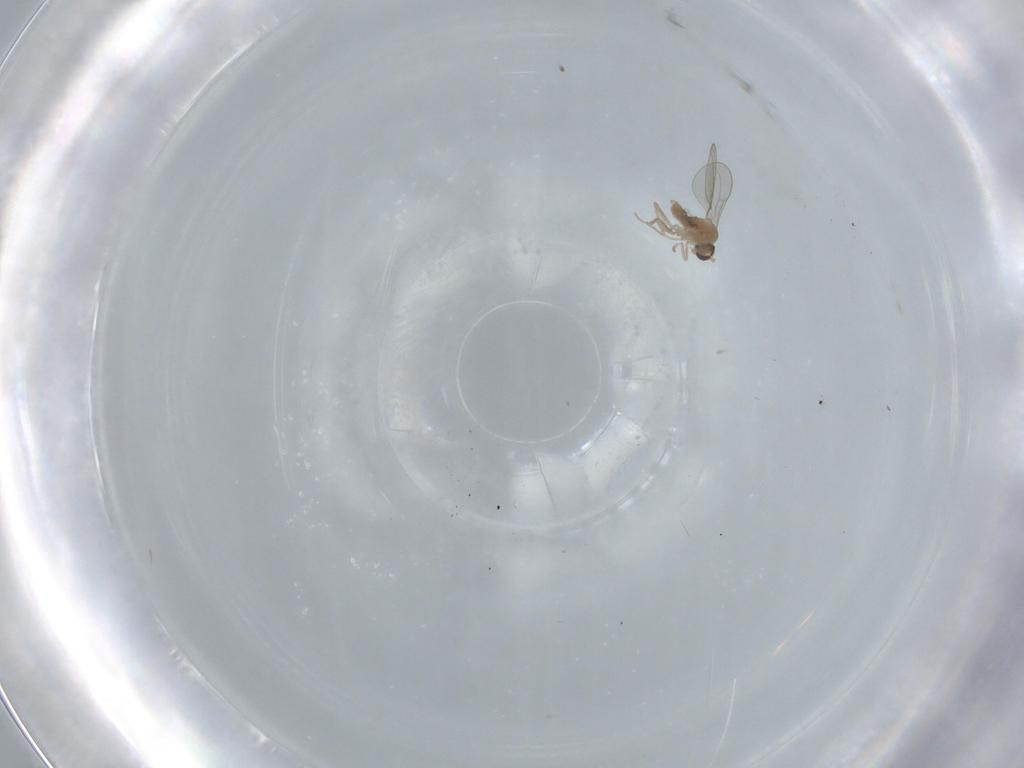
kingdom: Animalia
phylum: Arthropoda
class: Insecta
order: Diptera
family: Cecidomyiidae
